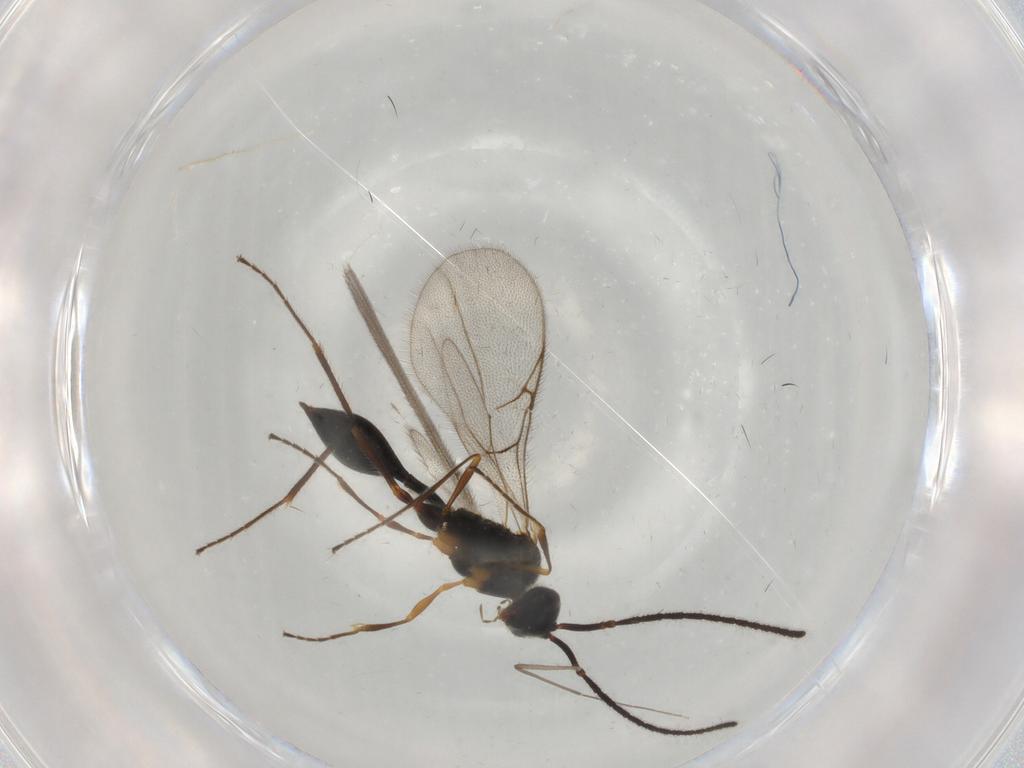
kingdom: Animalia
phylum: Arthropoda
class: Insecta
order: Hymenoptera
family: Diapriidae
